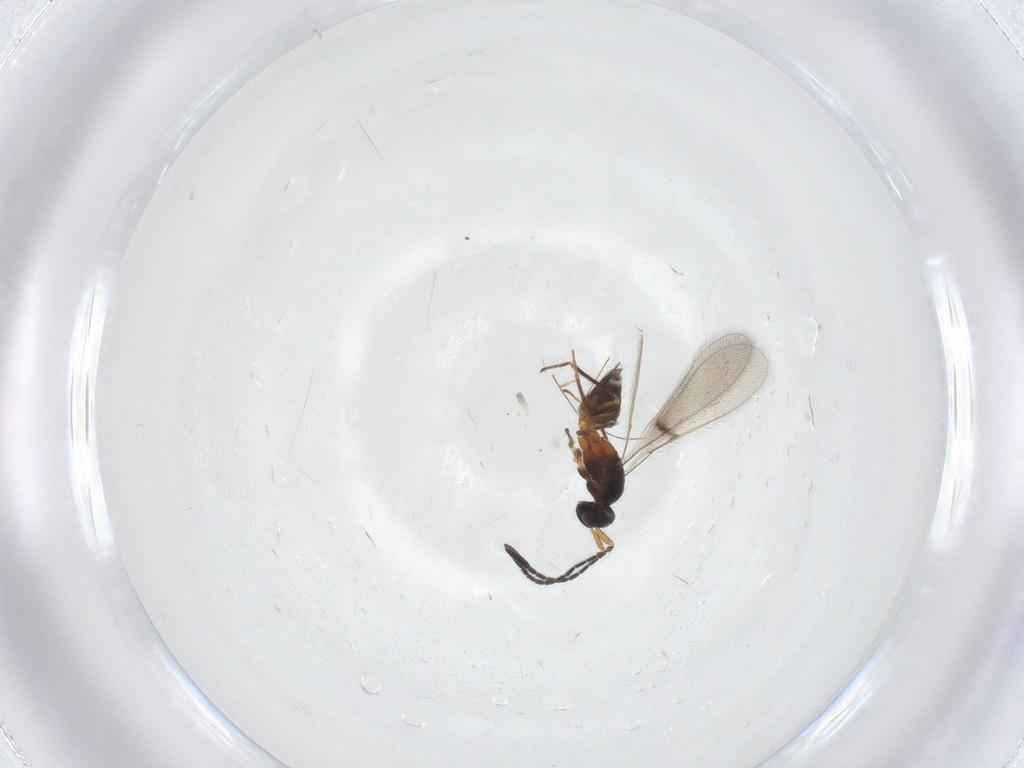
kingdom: Animalia
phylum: Arthropoda
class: Insecta
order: Hymenoptera
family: Mymaridae
